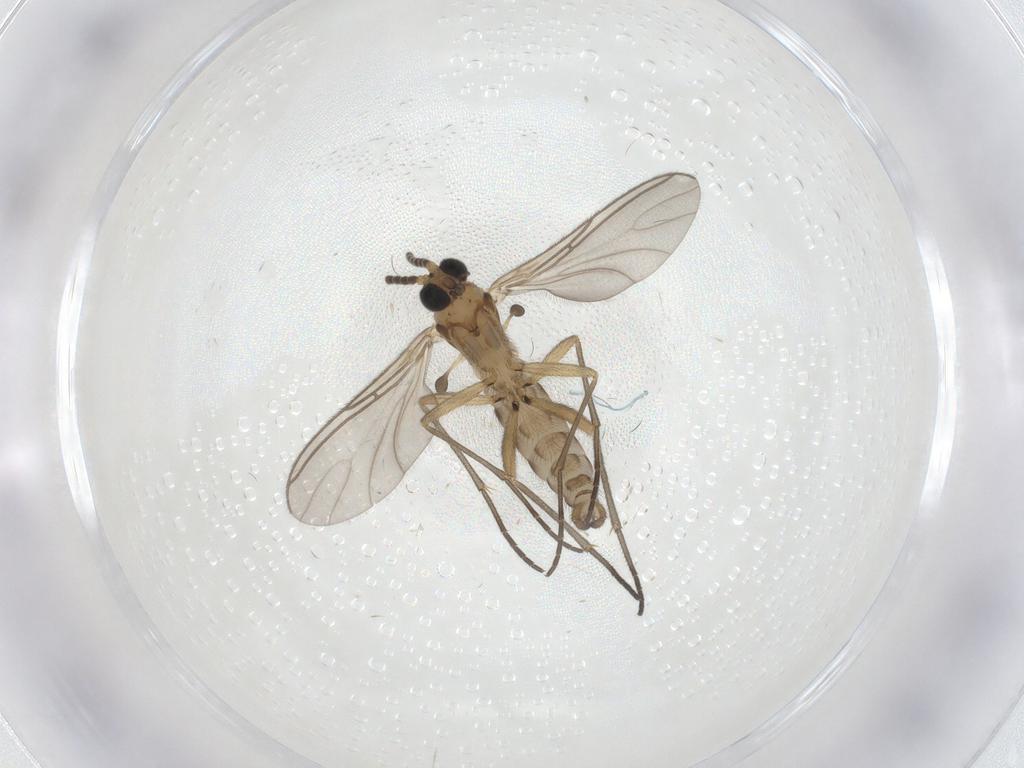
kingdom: Animalia
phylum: Arthropoda
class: Insecta
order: Diptera
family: Sciaridae
